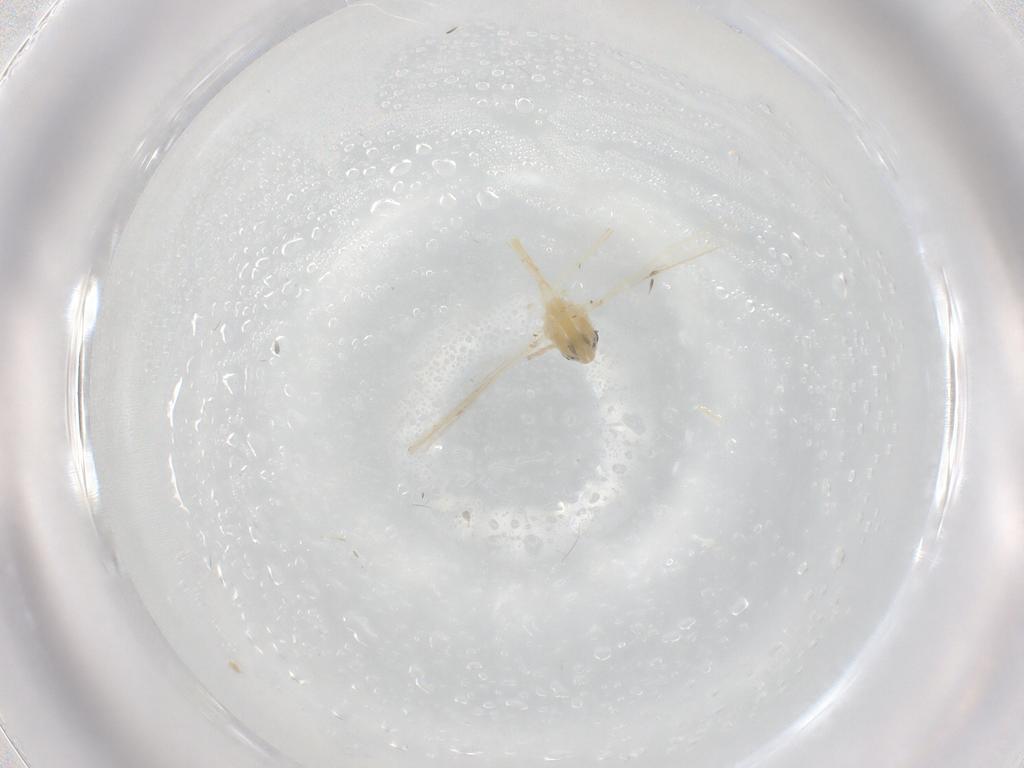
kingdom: Animalia
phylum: Arthropoda
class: Insecta
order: Diptera
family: Chironomidae
